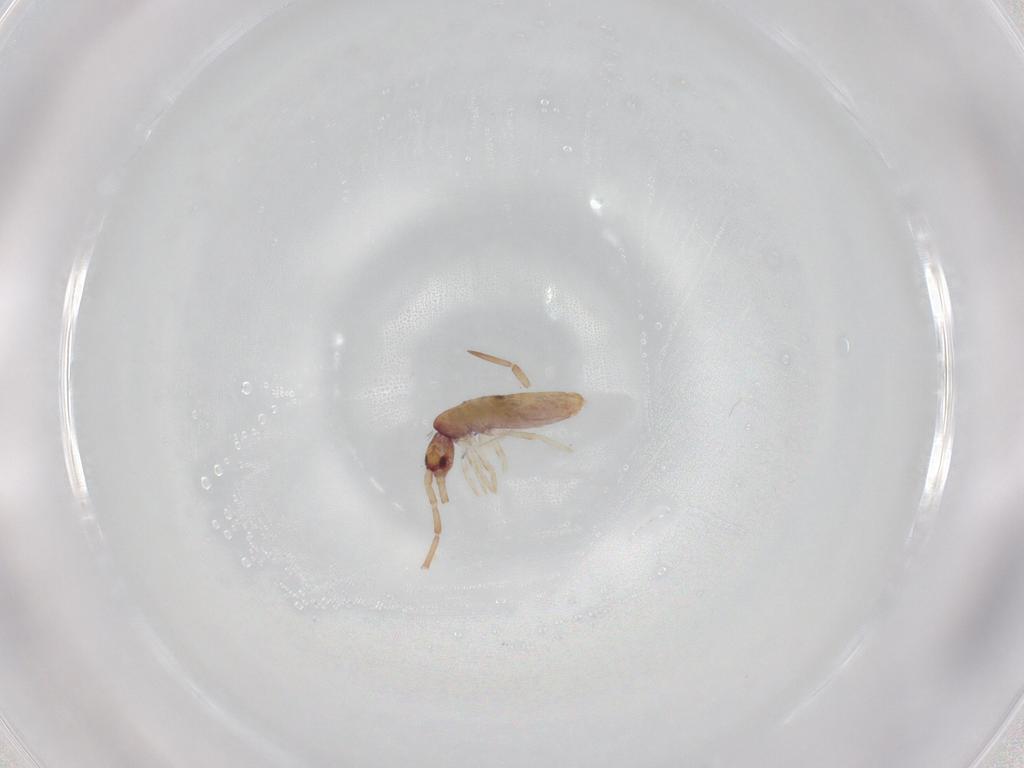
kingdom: Animalia
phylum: Arthropoda
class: Collembola
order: Entomobryomorpha
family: Entomobryidae
